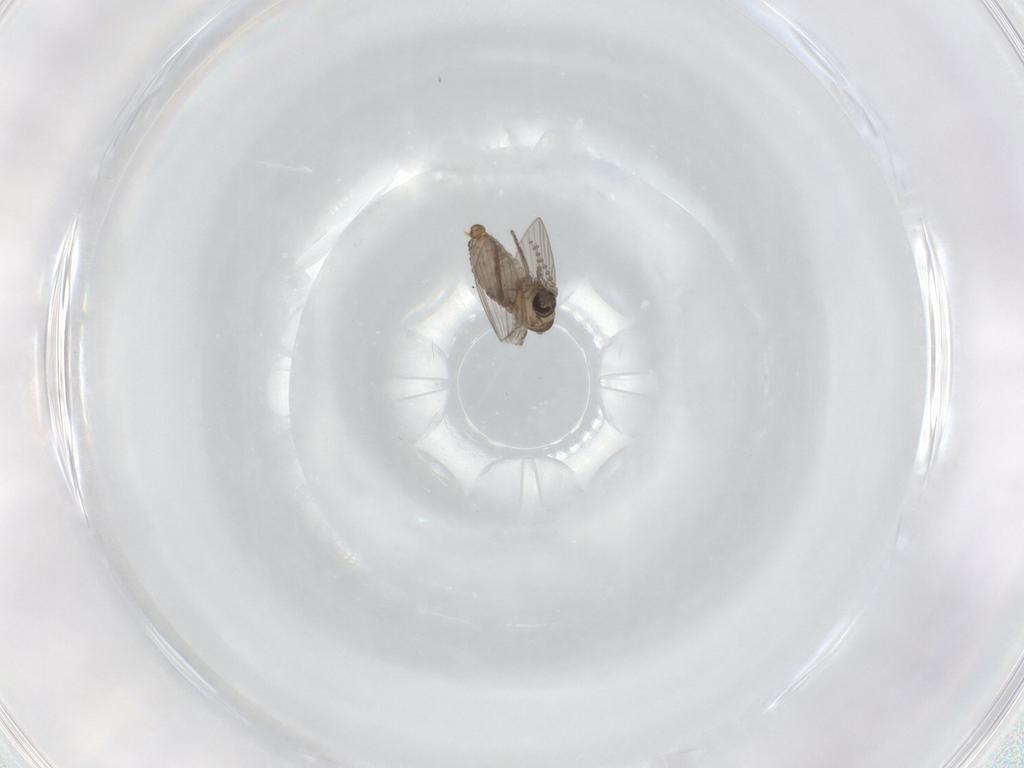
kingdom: Animalia
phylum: Arthropoda
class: Insecta
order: Diptera
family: Psychodidae
